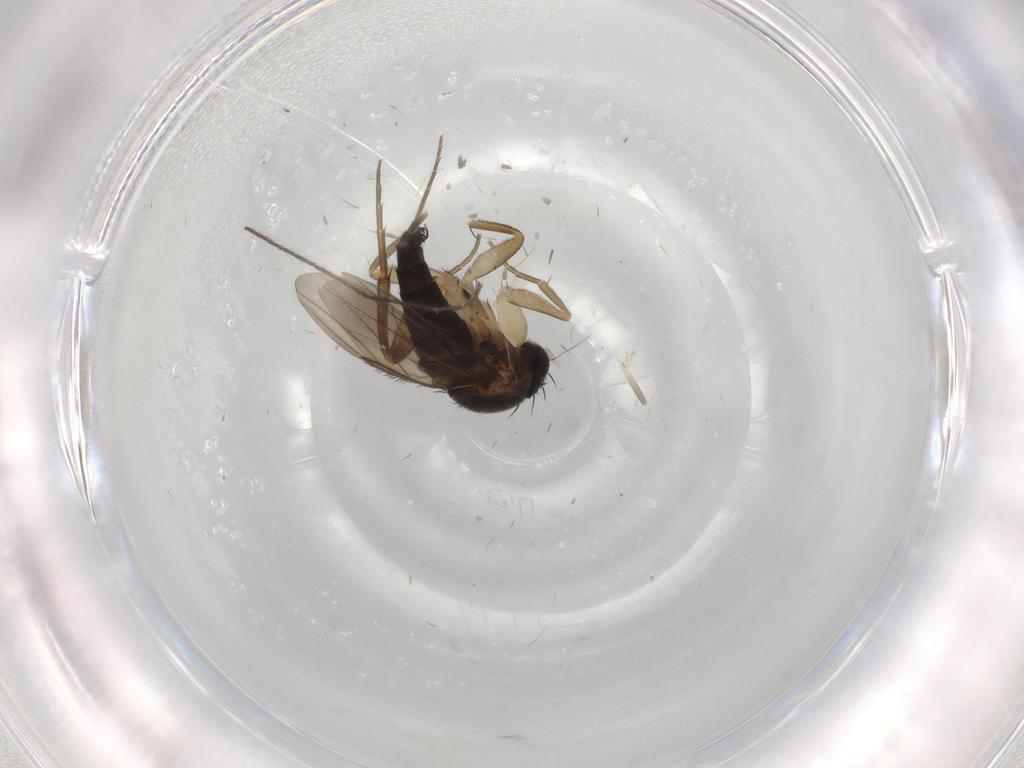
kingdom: Animalia
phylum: Arthropoda
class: Insecta
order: Diptera
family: Phoridae
